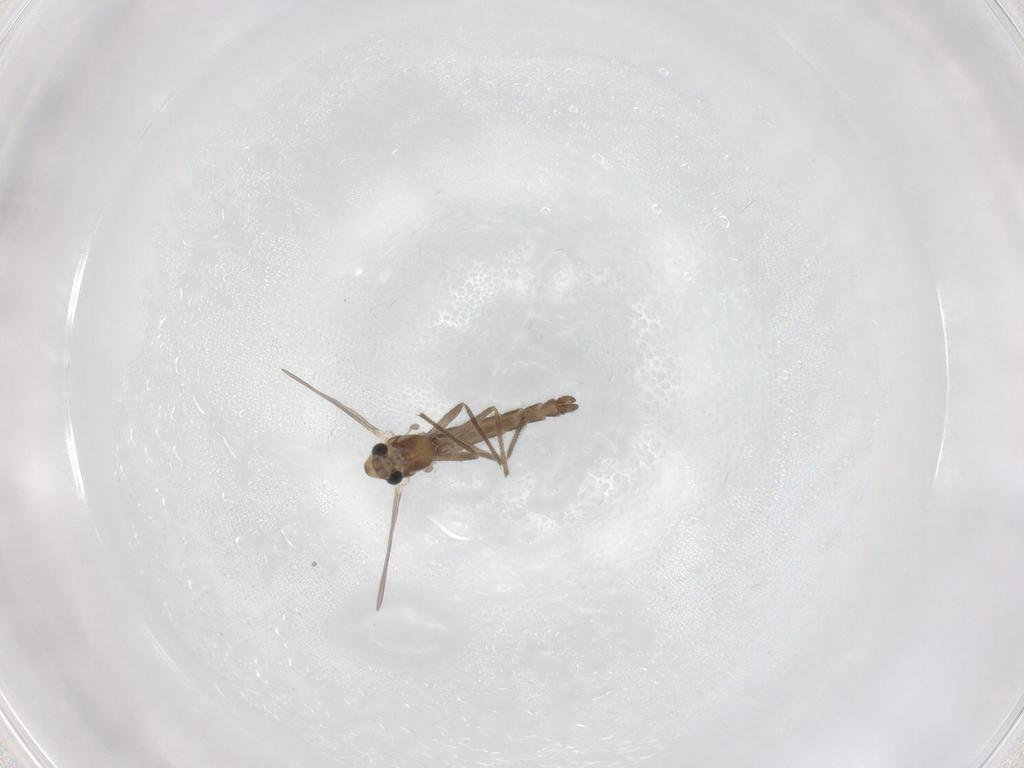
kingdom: Animalia
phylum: Arthropoda
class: Insecta
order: Diptera
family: Chironomidae
